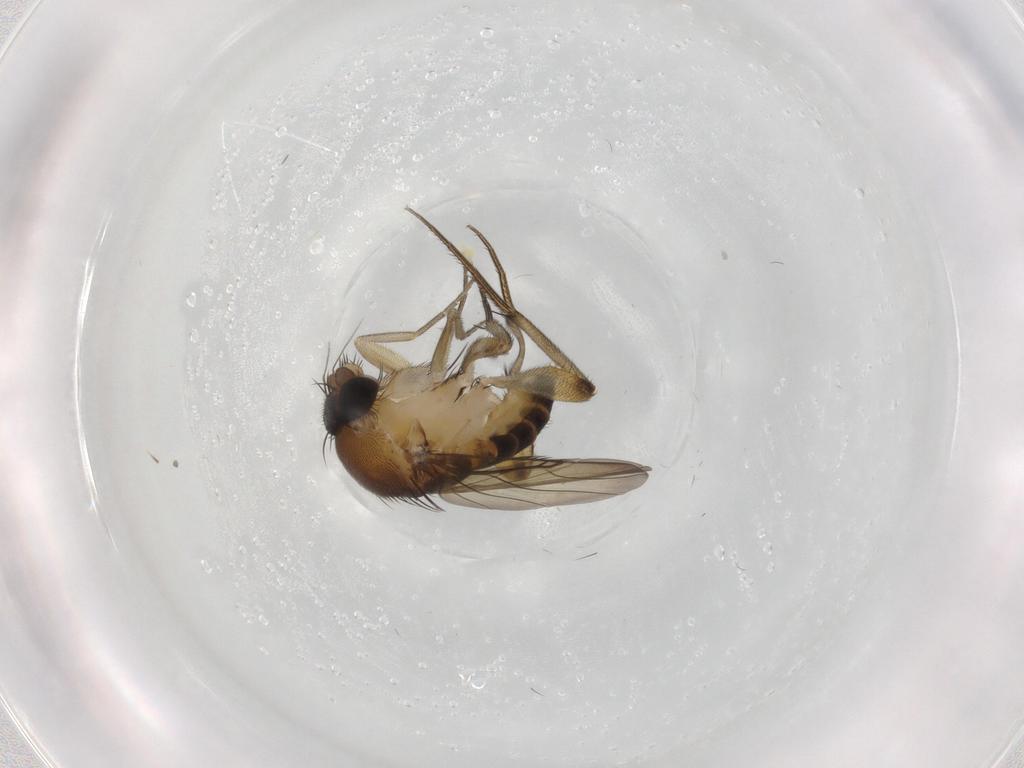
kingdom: Animalia
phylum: Arthropoda
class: Insecta
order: Diptera
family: Phoridae
